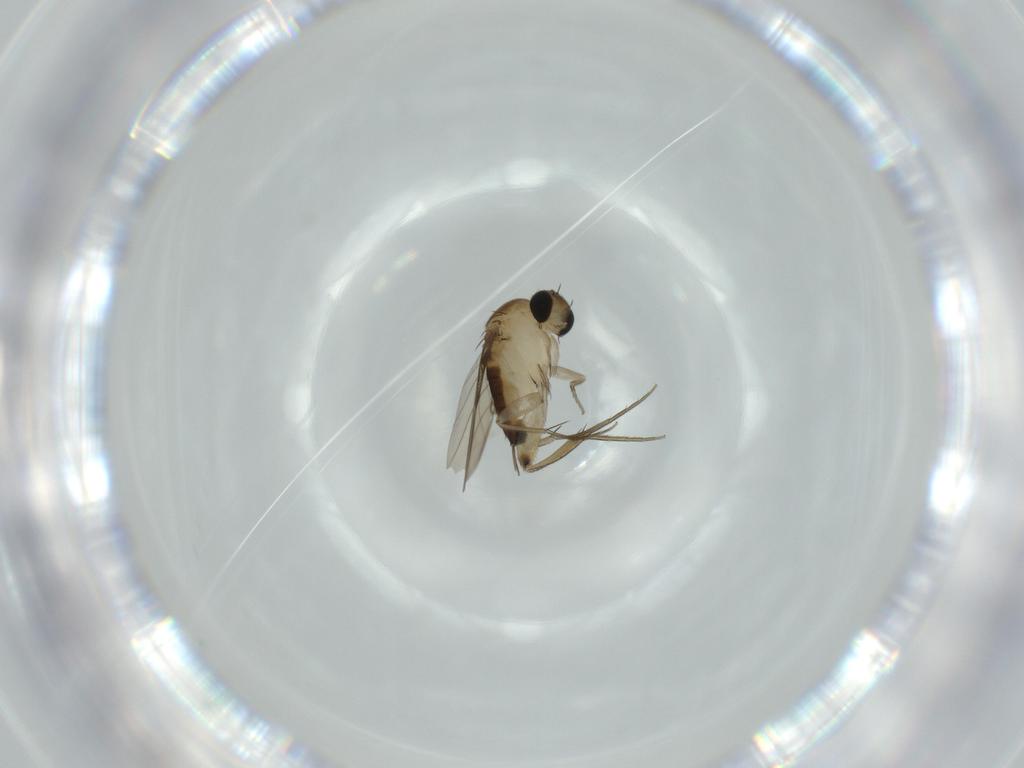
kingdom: Animalia
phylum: Arthropoda
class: Insecta
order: Diptera
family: Phoridae
